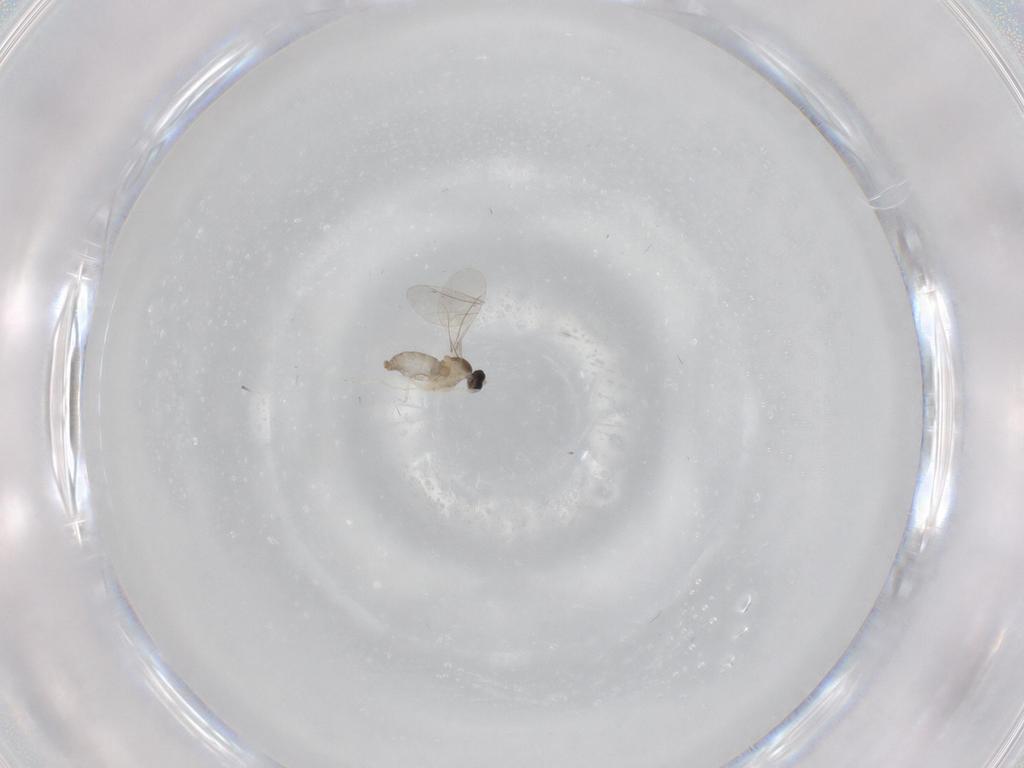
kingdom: Animalia
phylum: Arthropoda
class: Insecta
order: Diptera
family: Cecidomyiidae
